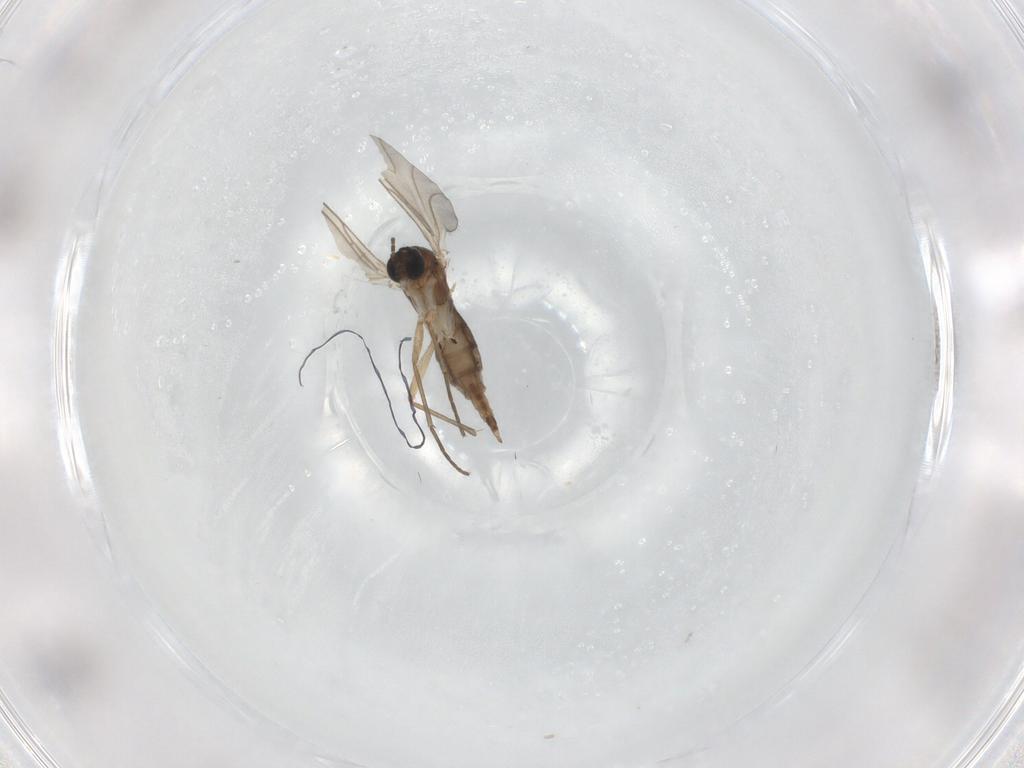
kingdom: Animalia
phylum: Arthropoda
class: Insecta
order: Diptera
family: Sciaridae
